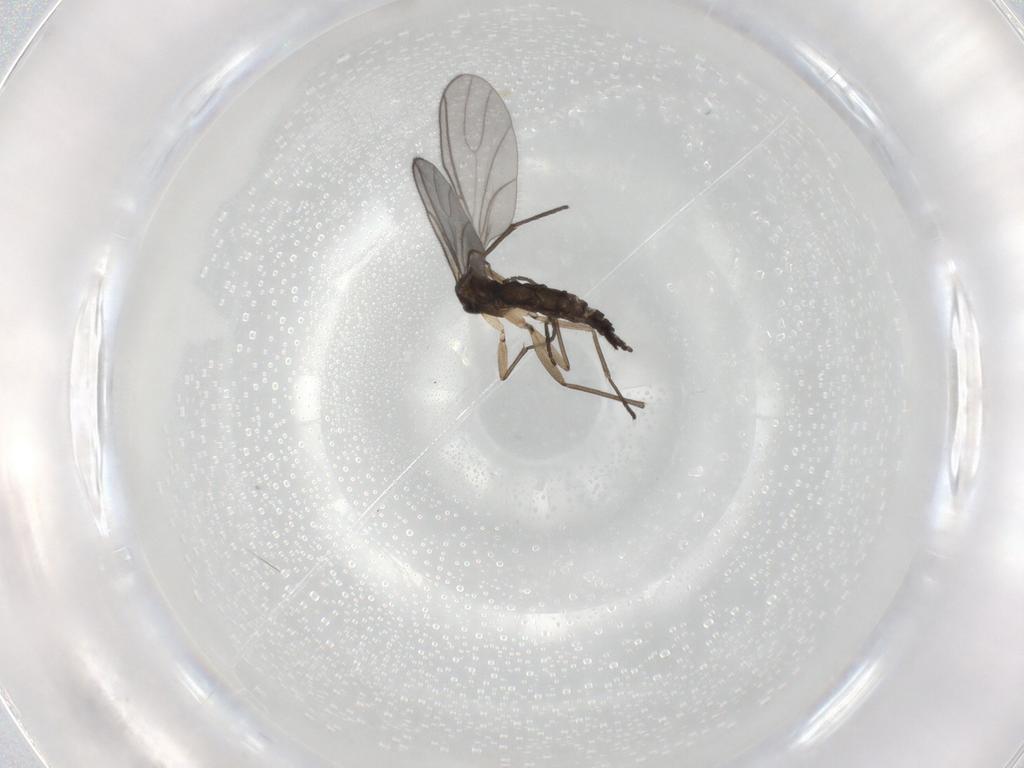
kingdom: Animalia
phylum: Arthropoda
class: Insecta
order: Diptera
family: Sciaridae
